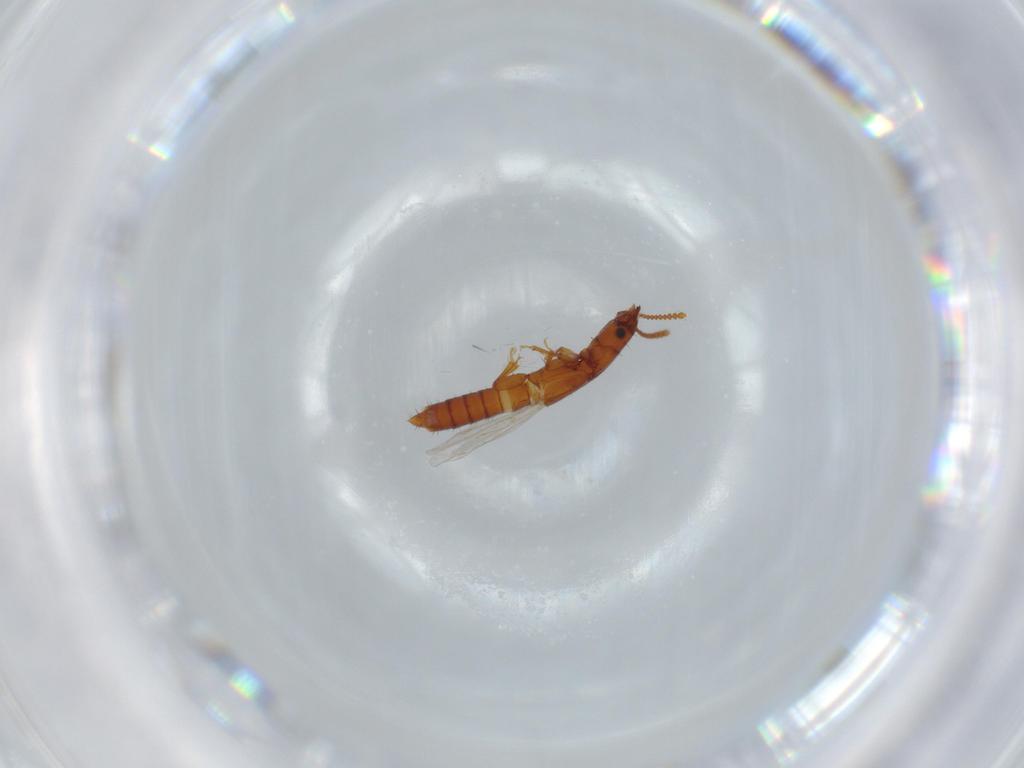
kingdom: Animalia
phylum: Arthropoda
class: Insecta
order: Coleoptera
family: Staphylinidae
